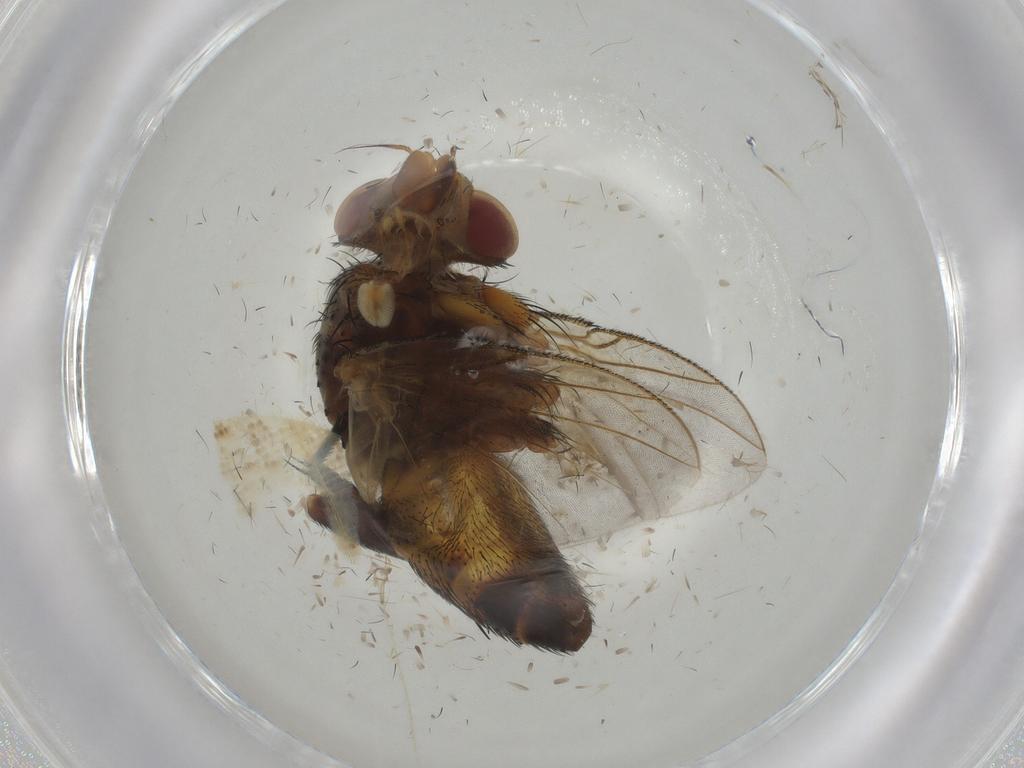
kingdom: Animalia
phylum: Arthropoda
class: Insecta
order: Diptera
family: Tachinidae
